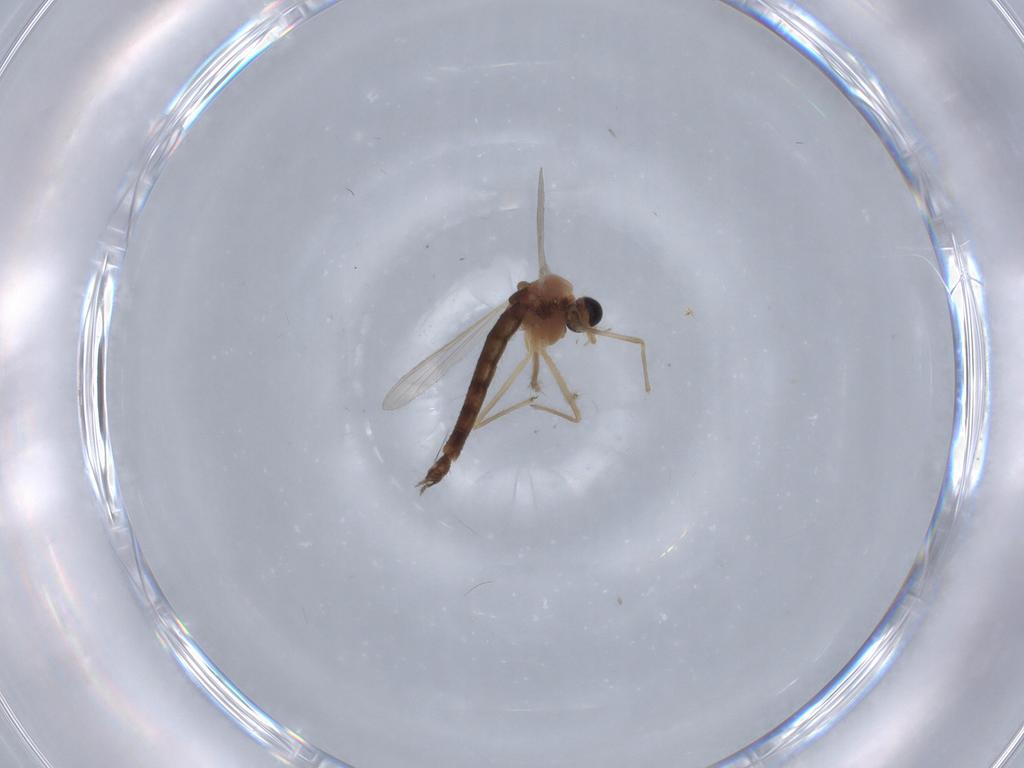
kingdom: Animalia
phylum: Arthropoda
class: Insecta
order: Diptera
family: Chironomidae
